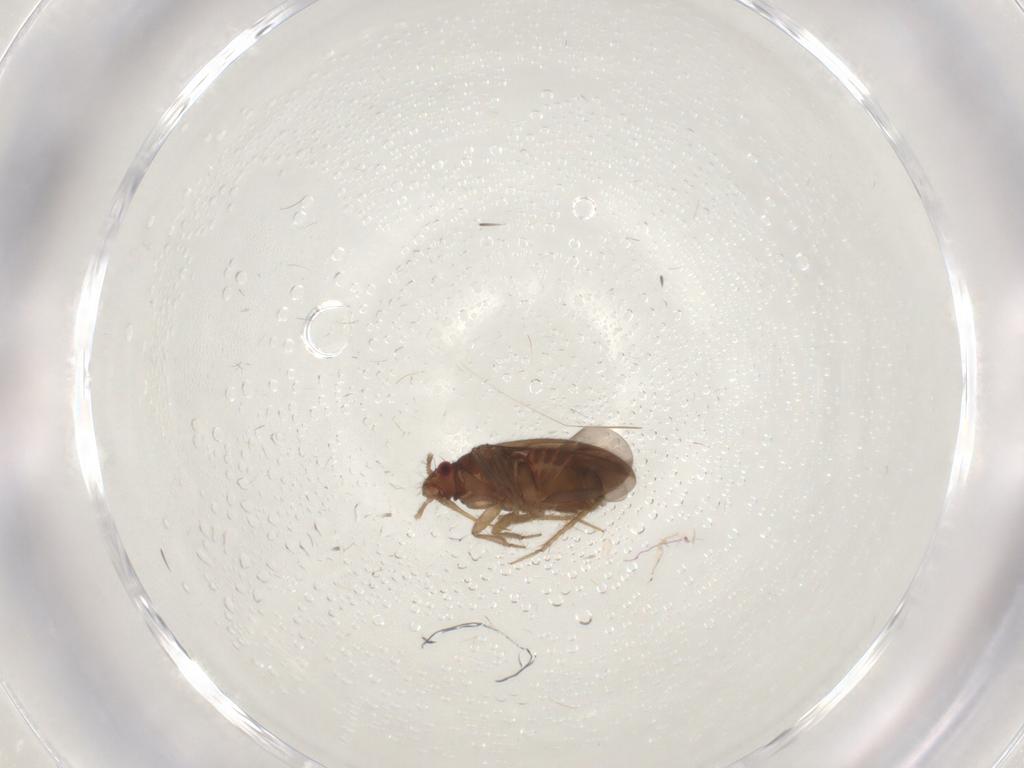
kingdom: Animalia
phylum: Arthropoda
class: Insecta
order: Hemiptera
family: Ceratocombidae
